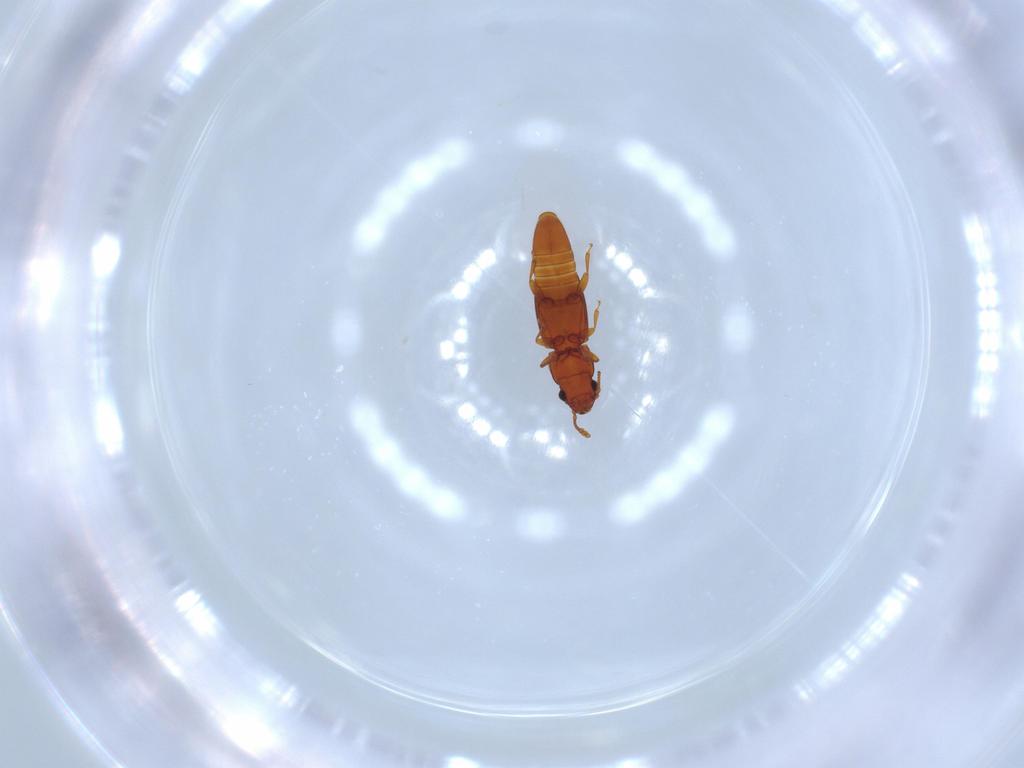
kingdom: Animalia
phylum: Arthropoda
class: Insecta
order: Coleoptera
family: Smicripidae
